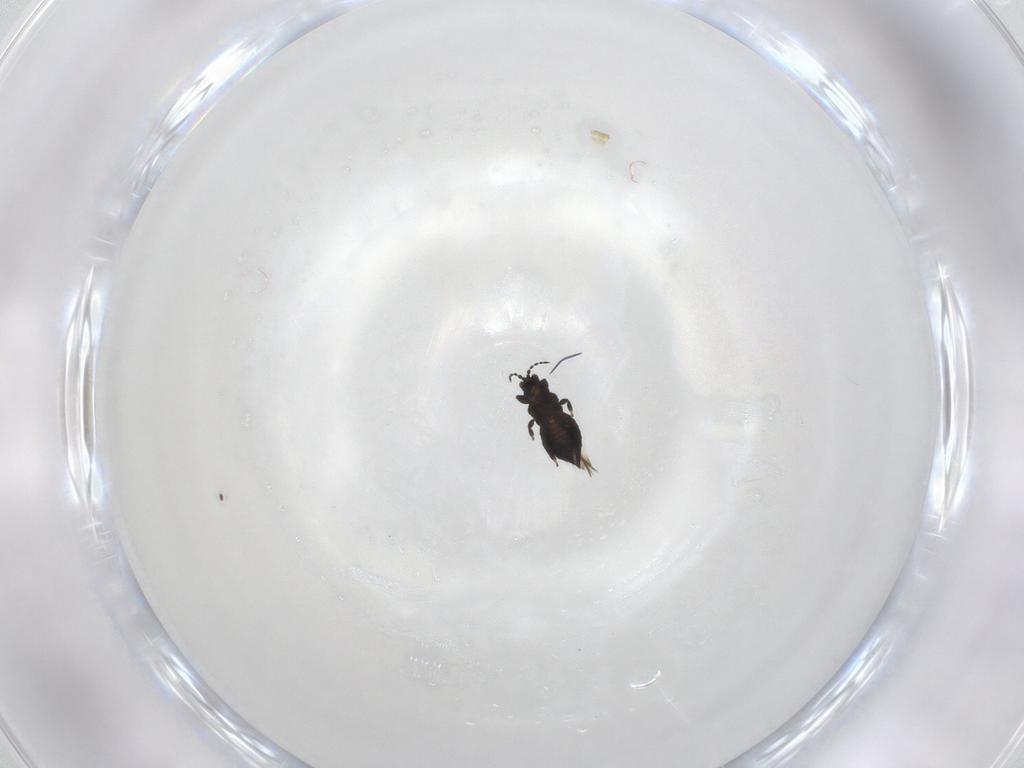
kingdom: Animalia
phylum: Arthropoda
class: Insecta
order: Thysanoptera
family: Thripidae
